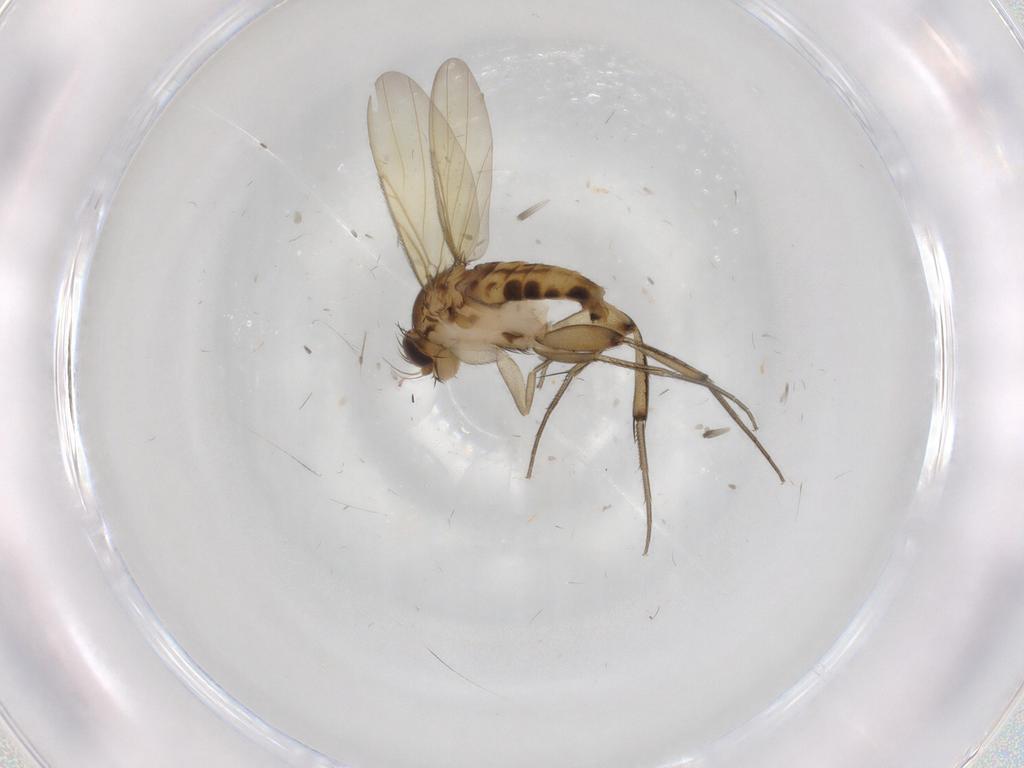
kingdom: Animalia
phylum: Arthropoda
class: Insecta
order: Diptera
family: Phoridae
